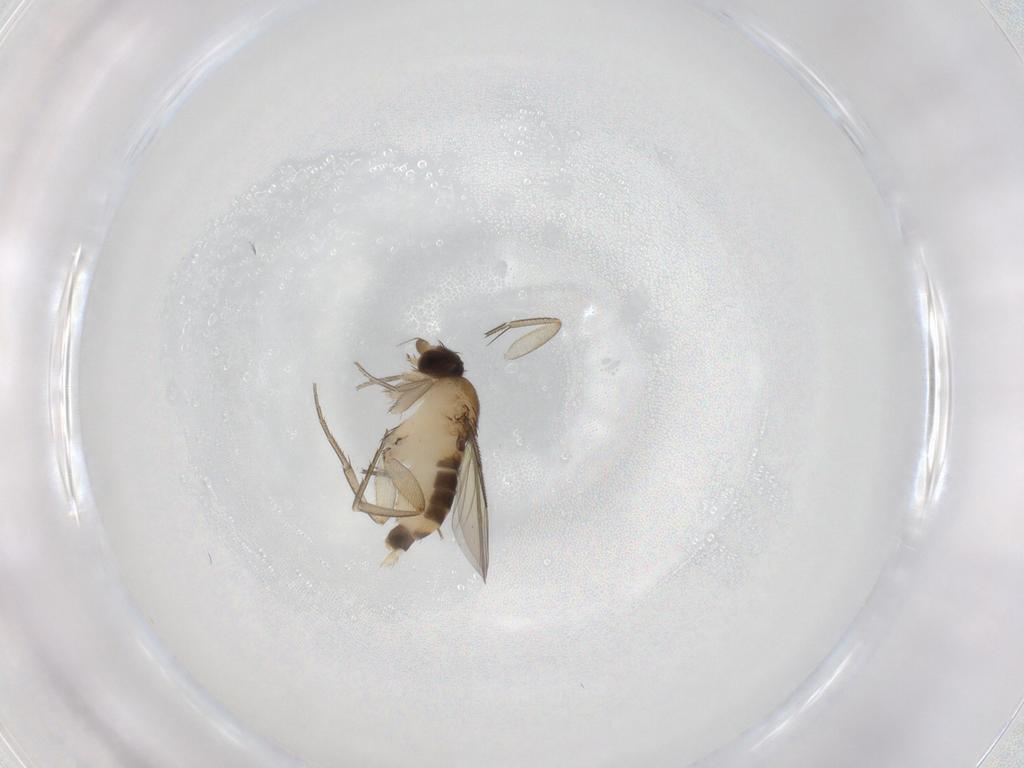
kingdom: Animalia
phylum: Arthropoda
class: Insecta
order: Diptera
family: Phoridae
